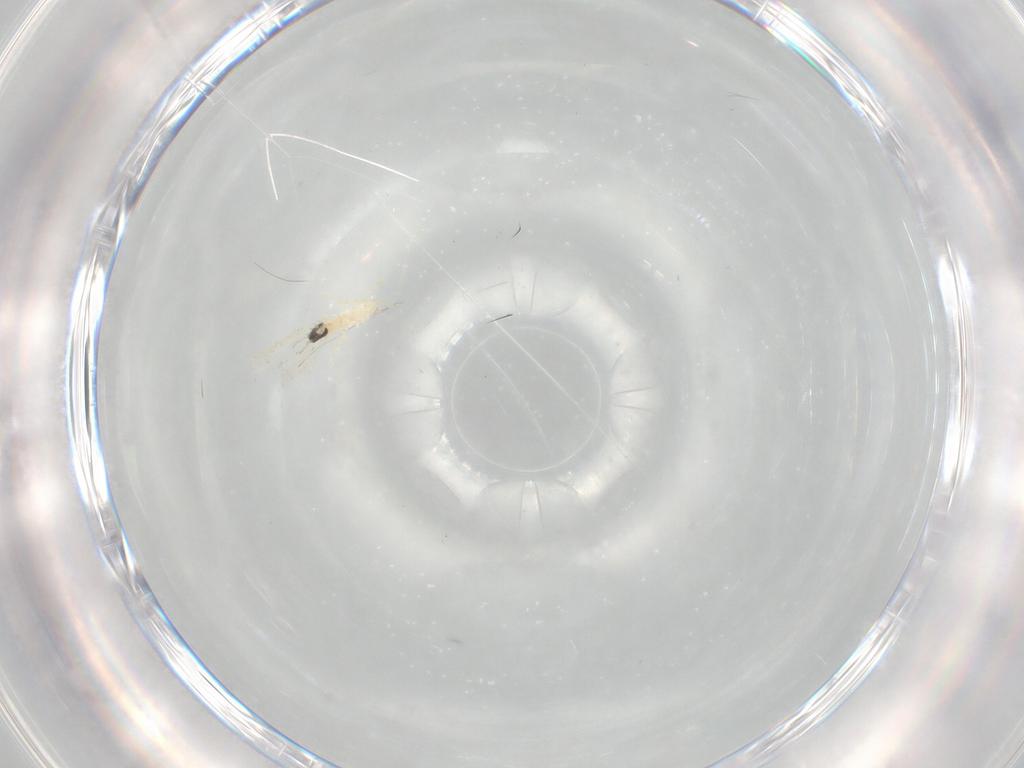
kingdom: Animalia
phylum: Arthropoda
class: Insecta
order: Diptera
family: Cecidomyiidae
